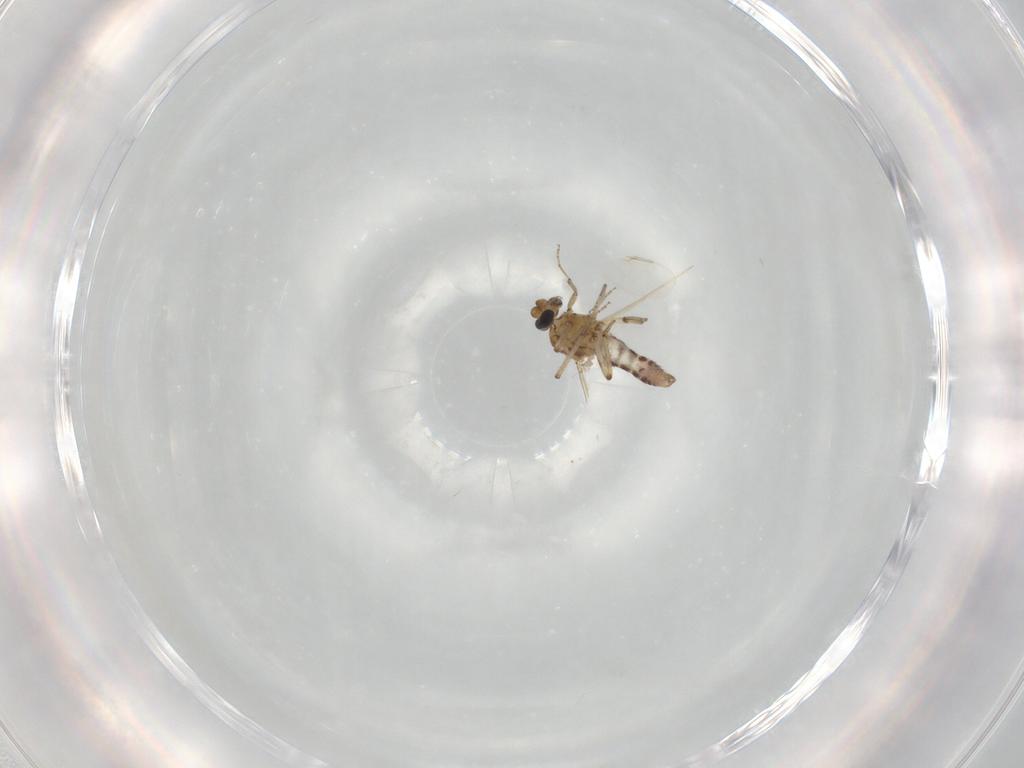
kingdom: Animalia
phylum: Arthropoda
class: Insecta
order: Diptera
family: Ceratopogonidae
